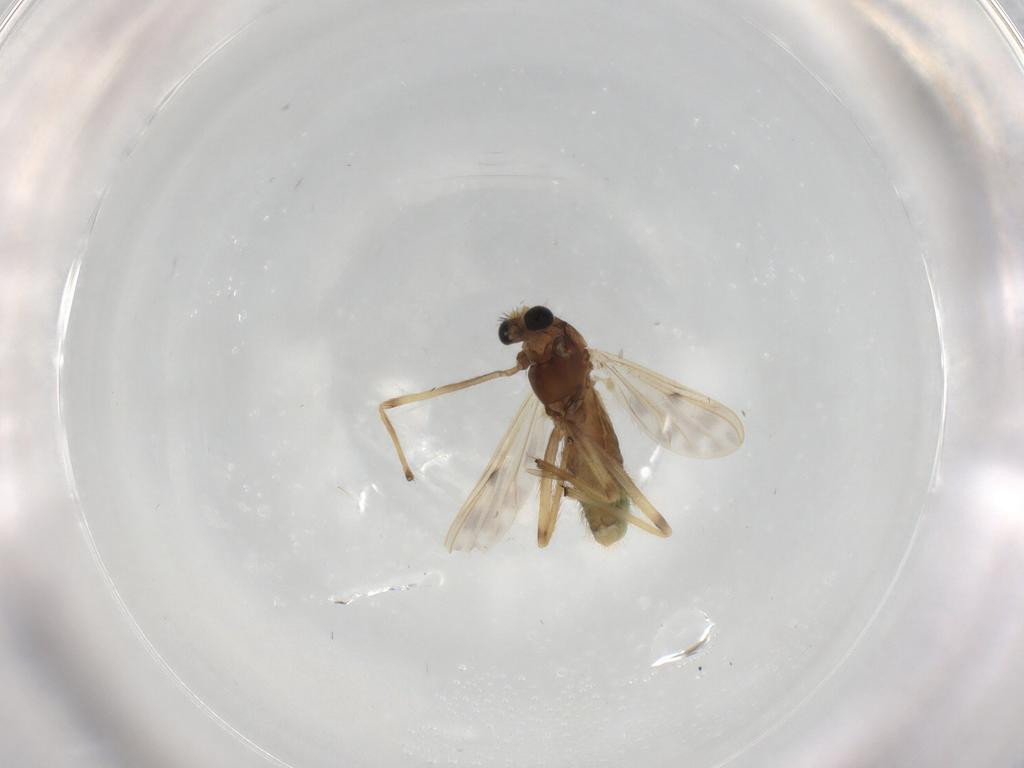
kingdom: Animalia
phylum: Arthropoda
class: Insecta
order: Diptera
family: Chironomidae
